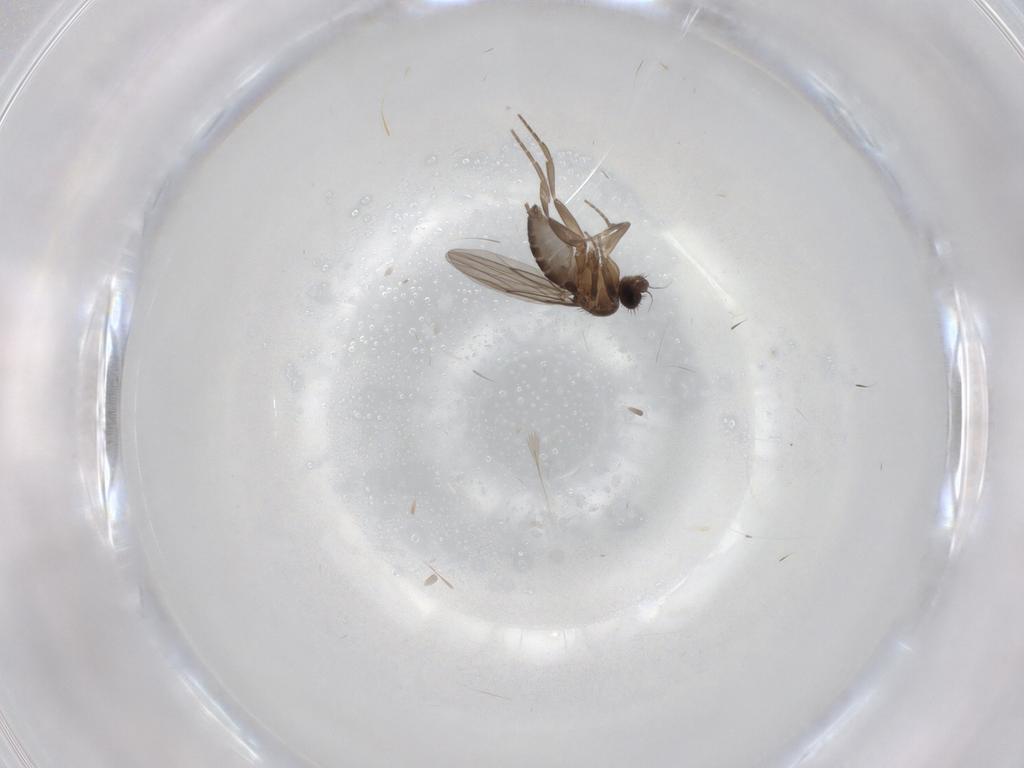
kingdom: Animalia
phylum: Arthropoda
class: Insecta
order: Diptera
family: Phoridae
